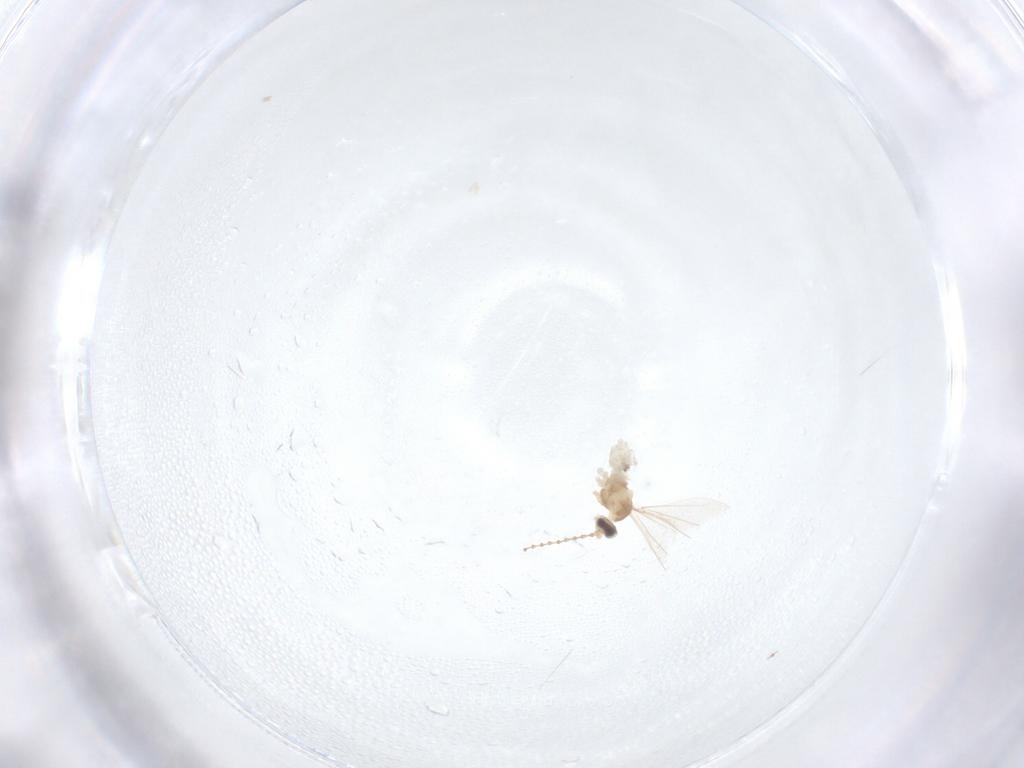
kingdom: Animalia
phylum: Arthropoda
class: Insecta
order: Diptera
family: Cecidomyiidae
